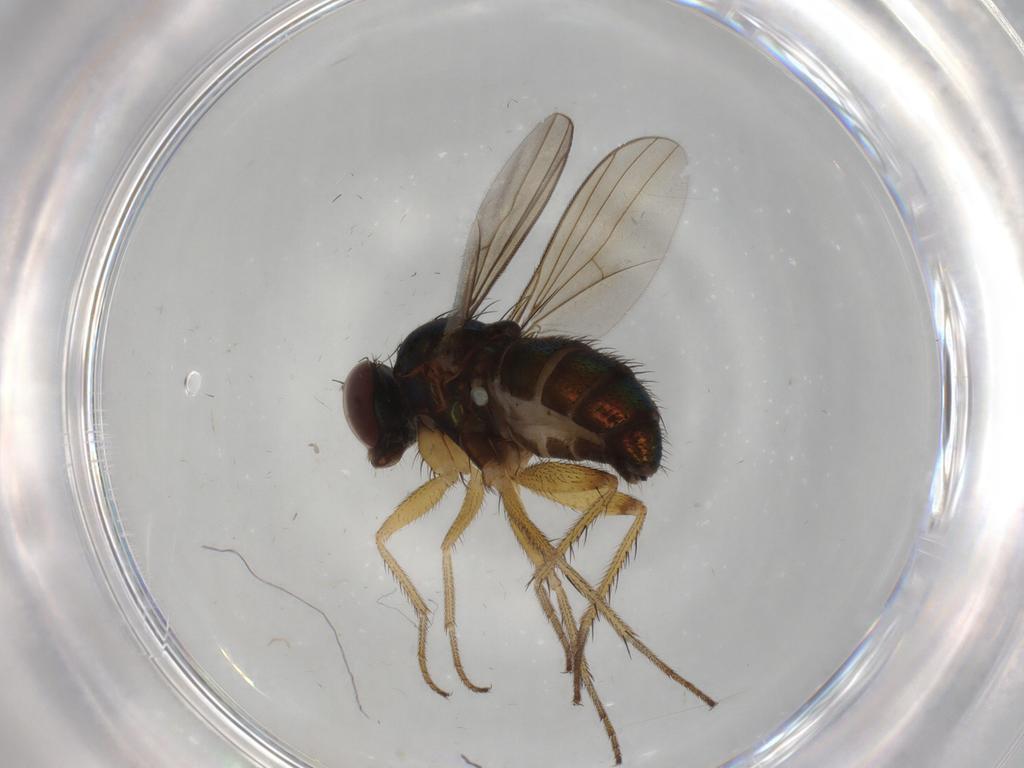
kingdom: Animalia
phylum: Arthropoda
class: Insecta
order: Diptera
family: Dolichopodidae
